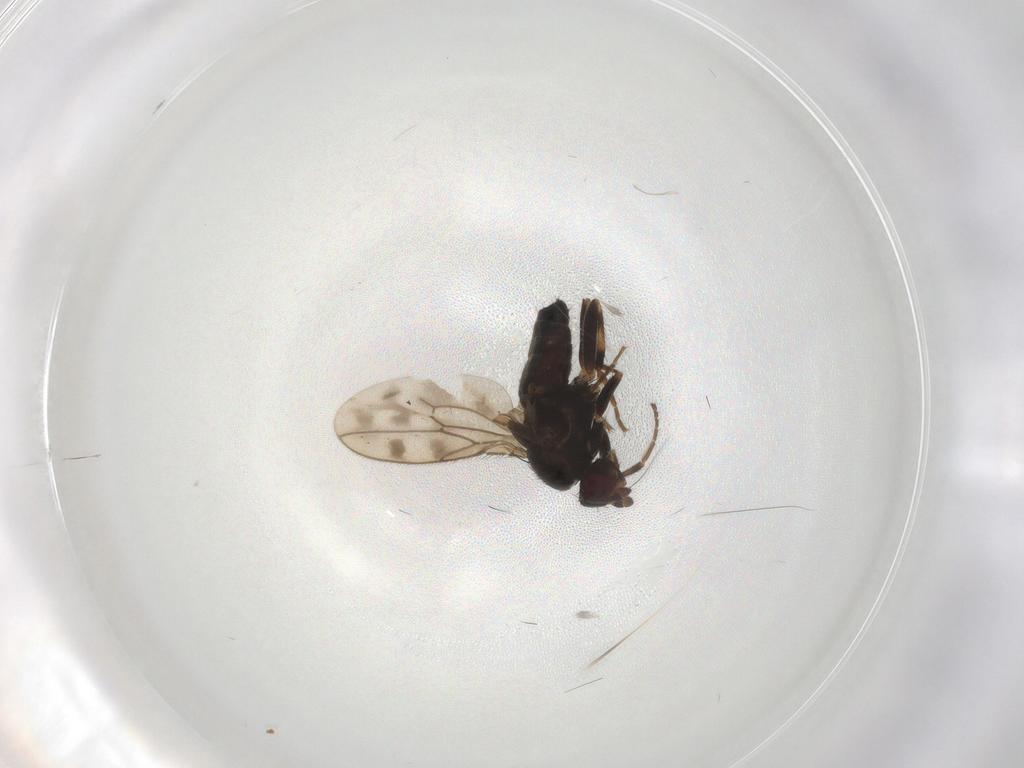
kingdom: Animalia
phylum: Arthropoda
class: Insecta
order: Diptera
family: Sphaeroceridae
